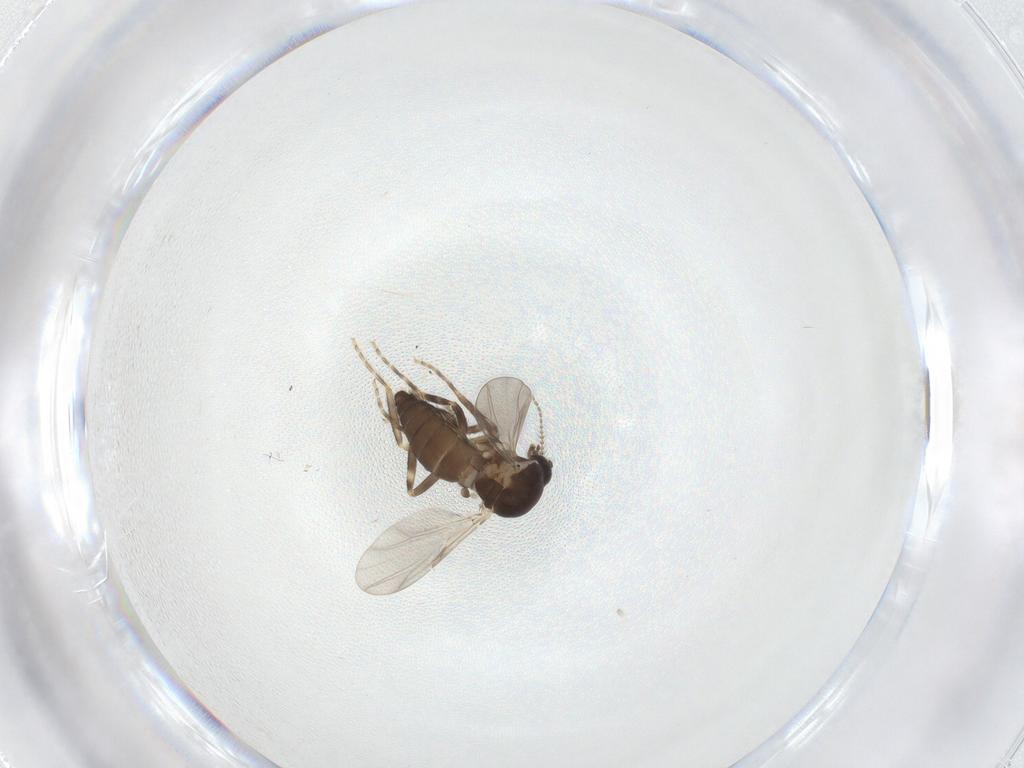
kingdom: Animalia
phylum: Arthropoda
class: Insecta
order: Diptera
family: Ceratopogonidae
